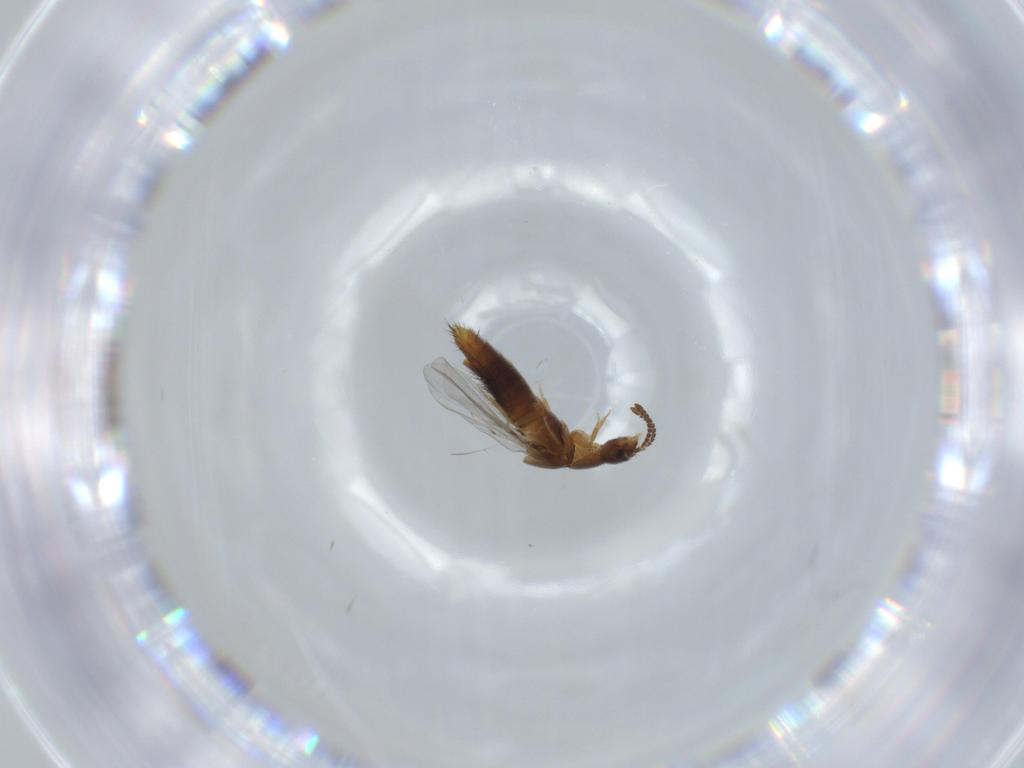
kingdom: Animalia
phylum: Arthropoda
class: Insecta
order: Coleoptera
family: Staphylinidae
